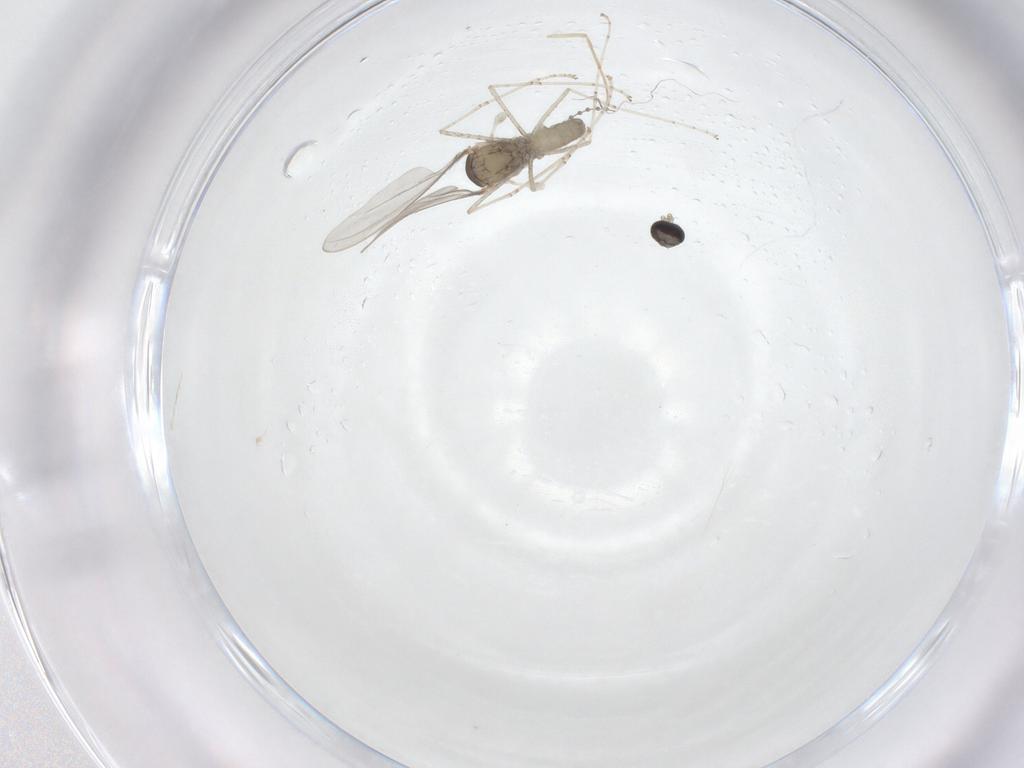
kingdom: Animalia
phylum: Arthropoda
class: Insecta
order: Diptera
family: Cecidomyiidae
